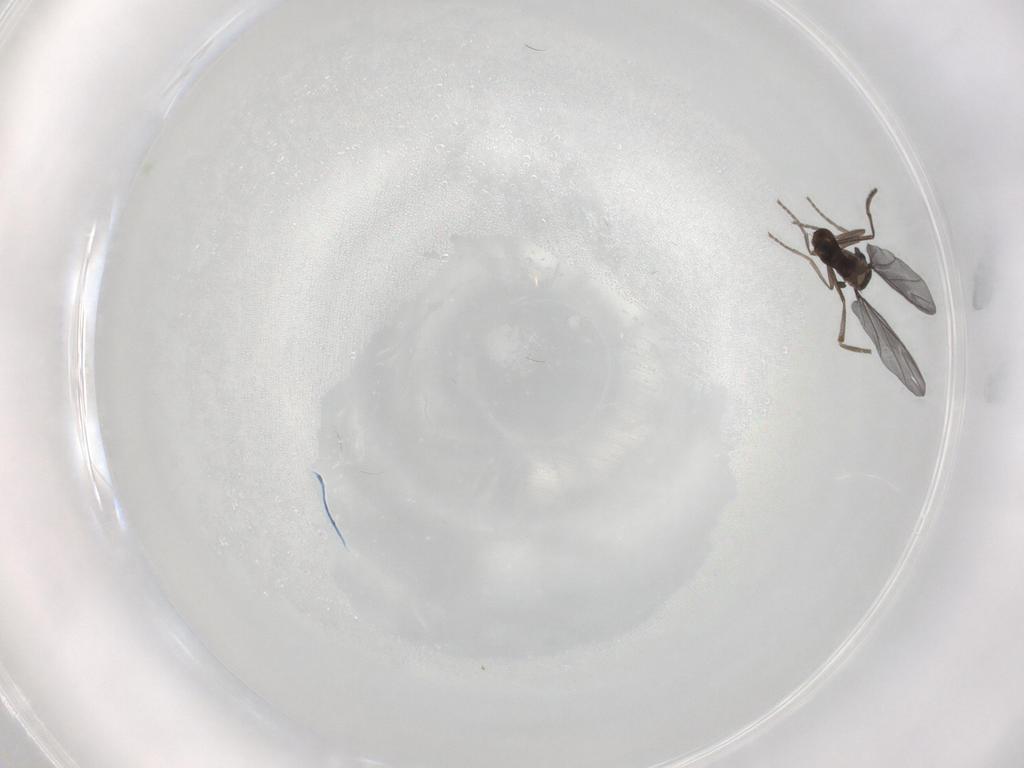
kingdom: Animalia
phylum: Arthropoda
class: Insecta
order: Diptera
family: Phoridae
